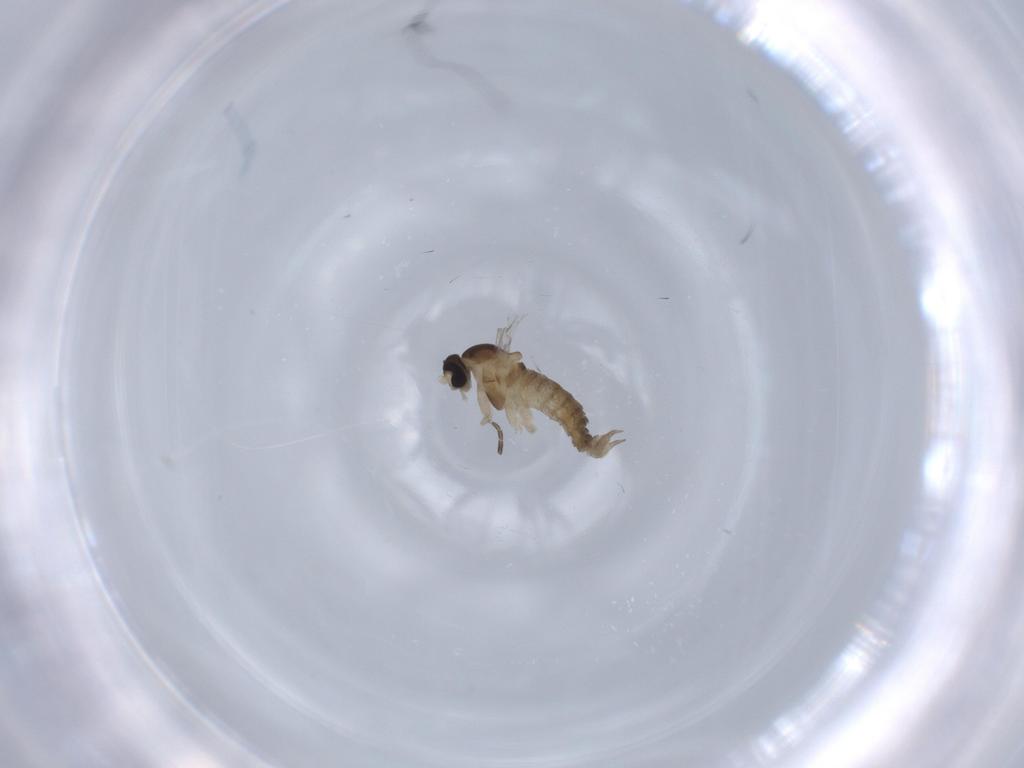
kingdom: Animalia
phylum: Arthropoda
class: Insecta
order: Diptera
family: Cecidomyiidae
